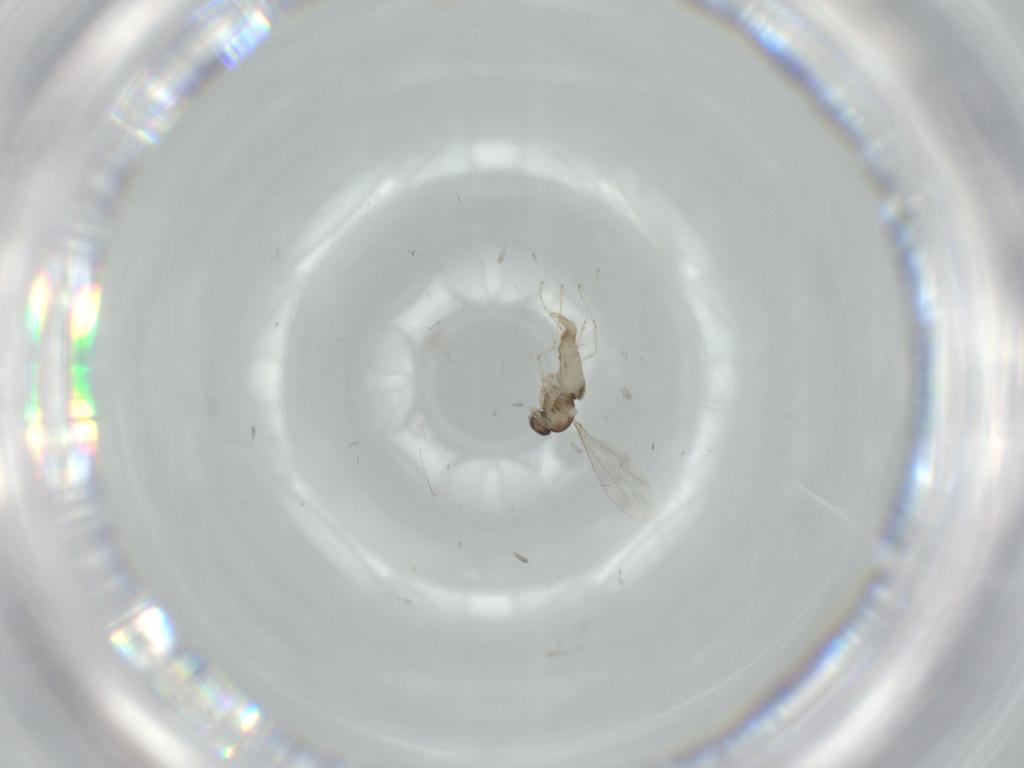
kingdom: Animalia
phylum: Arthropoda
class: Insecta
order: Diptera
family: Cecidomyiidae
